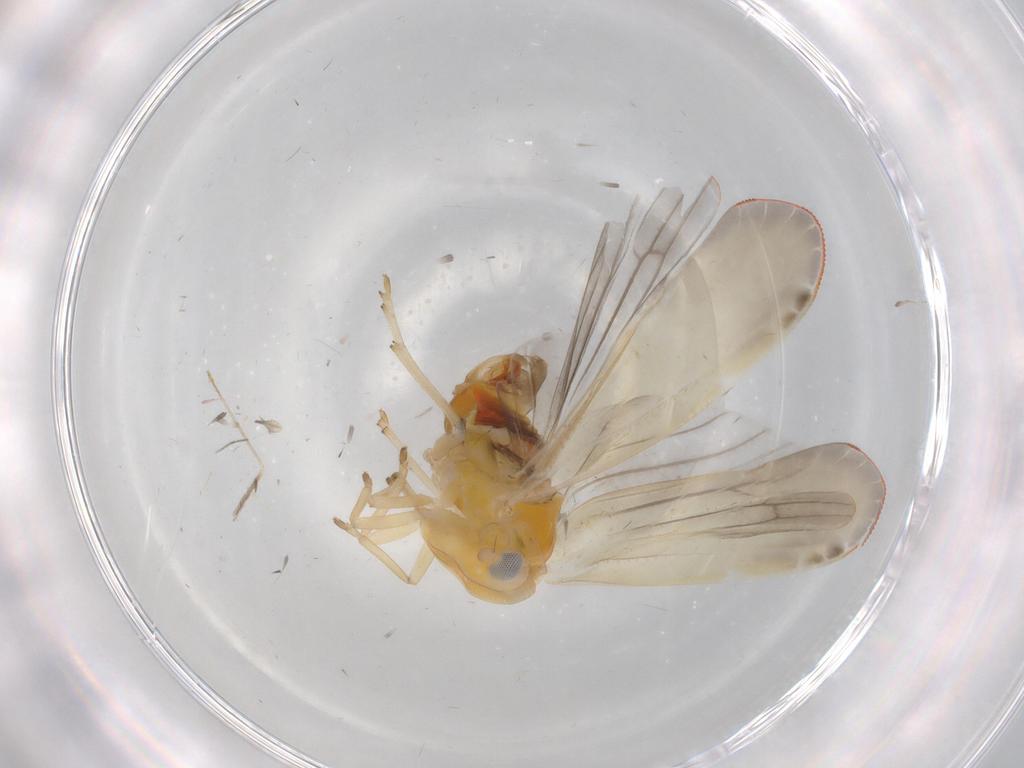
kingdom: Animalia
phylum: Arthropoda
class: Insecta
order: Hemiptera
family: Derbidae
